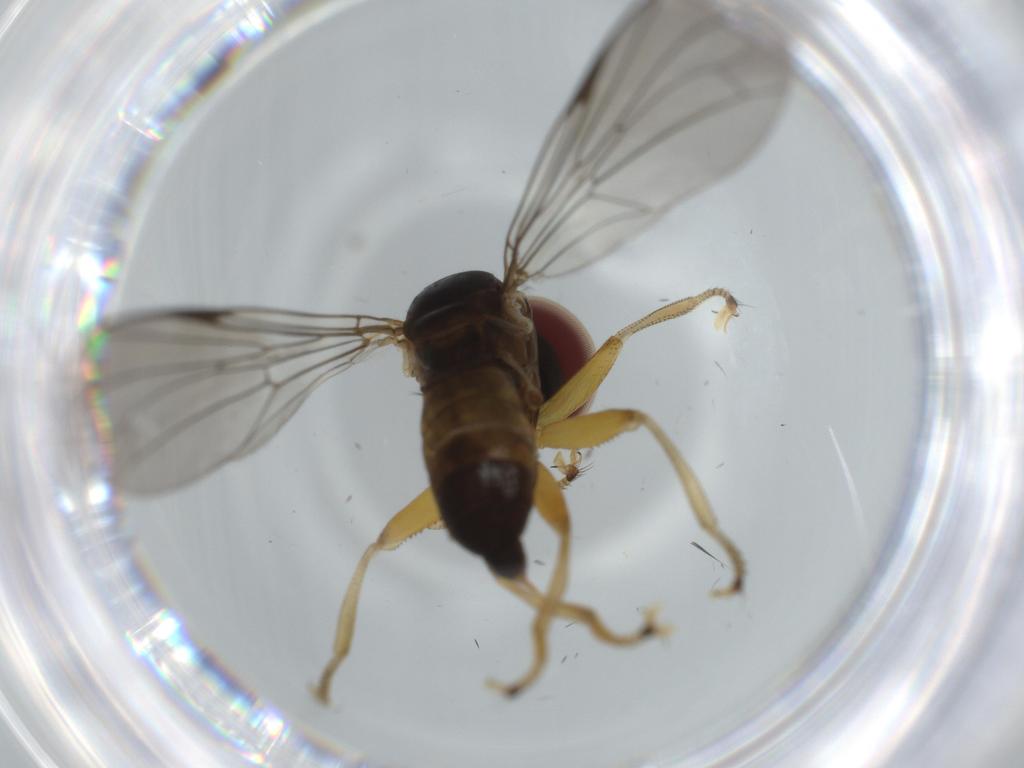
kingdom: Animalia
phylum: Arthropoda
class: Insecta
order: Diptera
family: Pipunculidae
